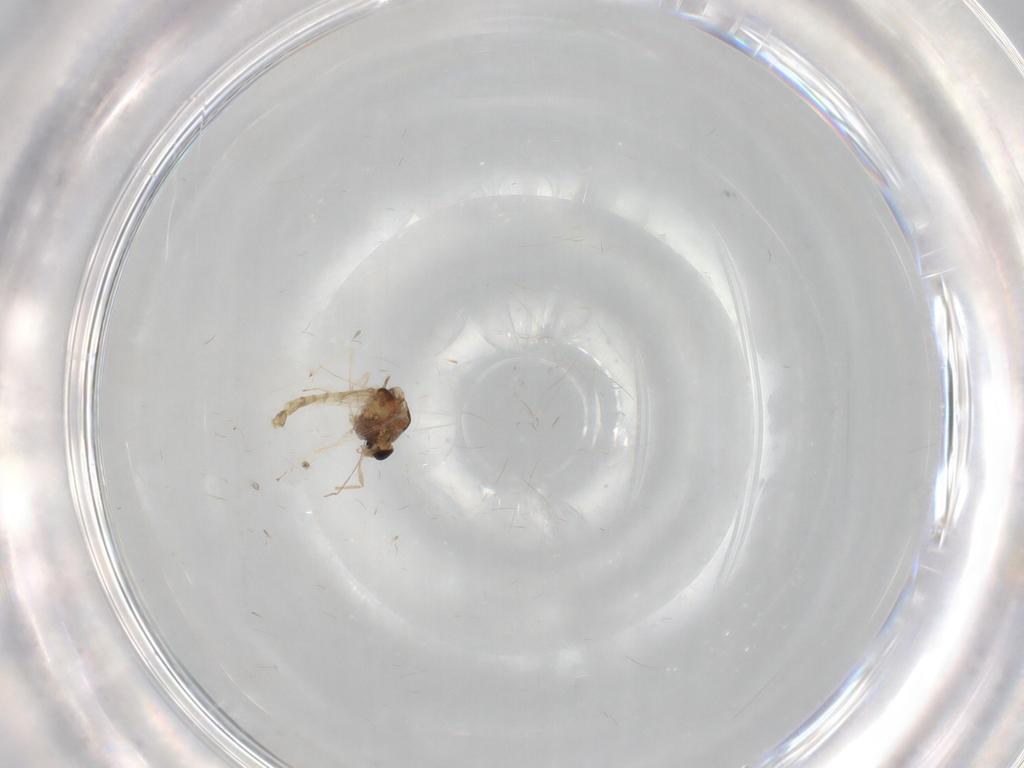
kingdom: Animalia
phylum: Arthropoda
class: Insecta
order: Diptera
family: Chironomidae
